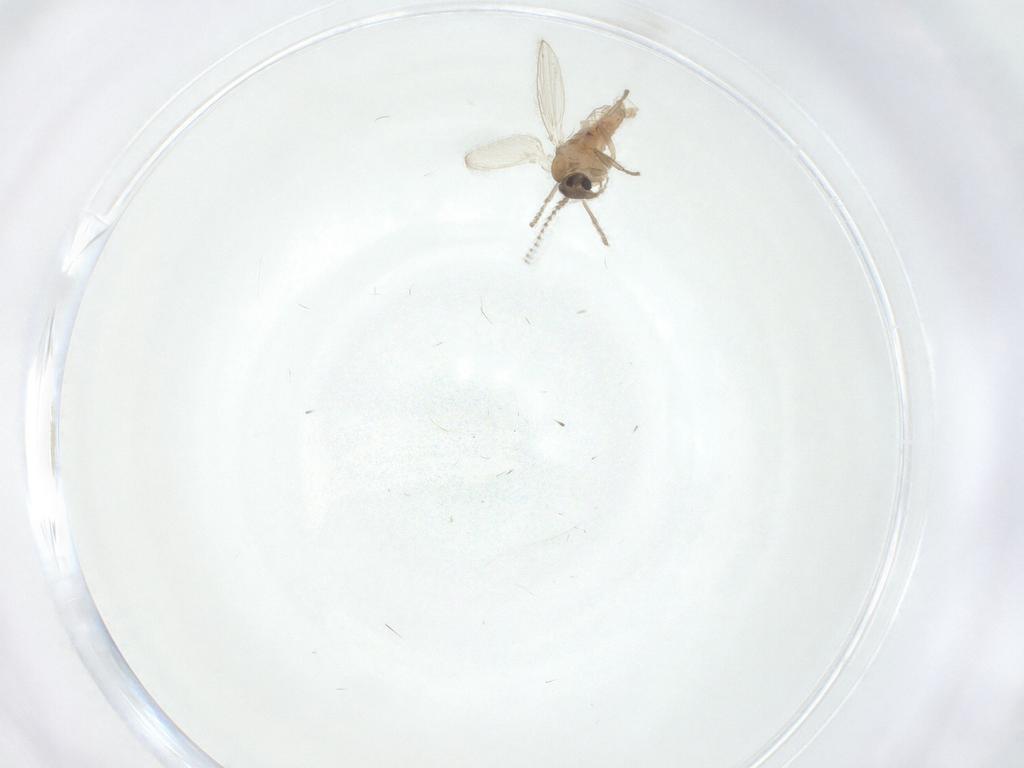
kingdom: Animalia
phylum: Arthropoda
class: Insecta
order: Diptera
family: Psychodidae
